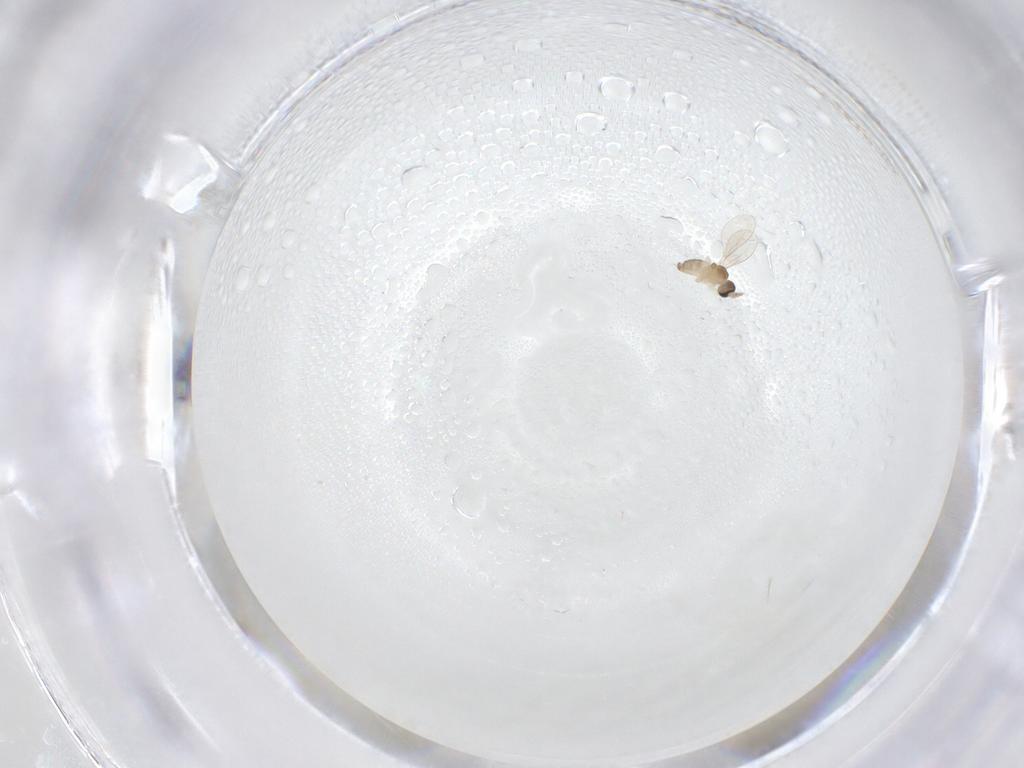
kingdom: Animalia
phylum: Arthropoda
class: Insecta
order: Diptera
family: Cecidomyiidae
